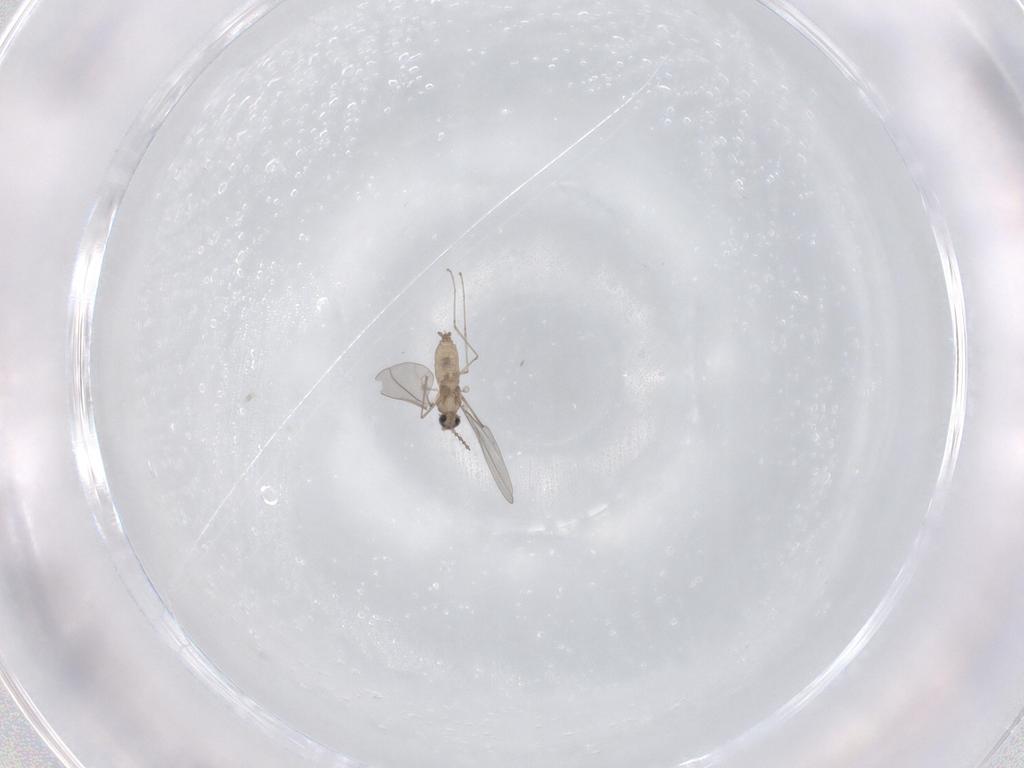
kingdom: Animalia
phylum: Arthropoda
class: Insecta
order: Diptera
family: Cecidomyiidae
